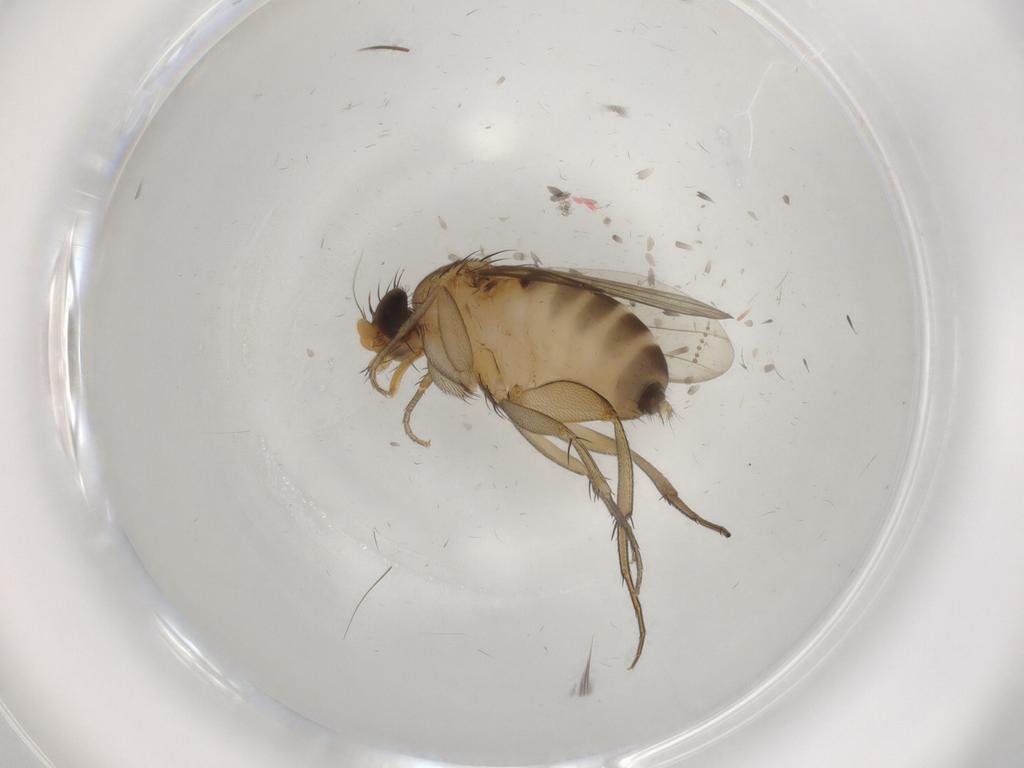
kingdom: Animalia
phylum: Arthropoda
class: Insecta
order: Diptera
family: Phoridae
